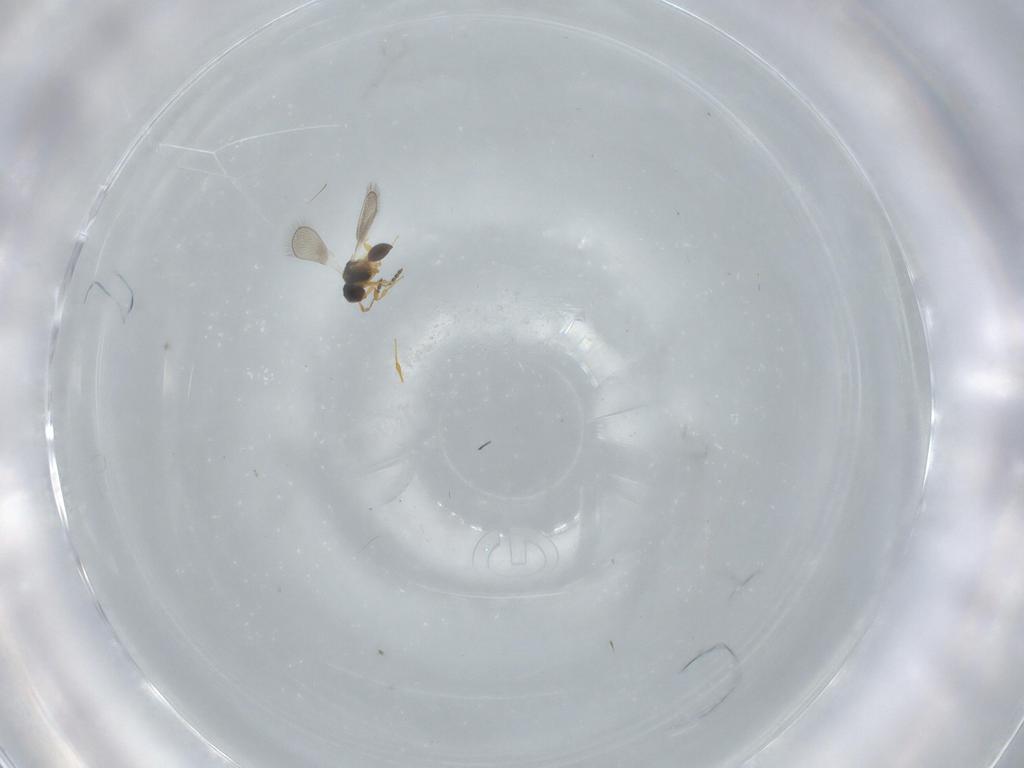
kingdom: Animalia
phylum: Arthropoda
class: Insecta
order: Hymenoptera
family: Platygastridae
